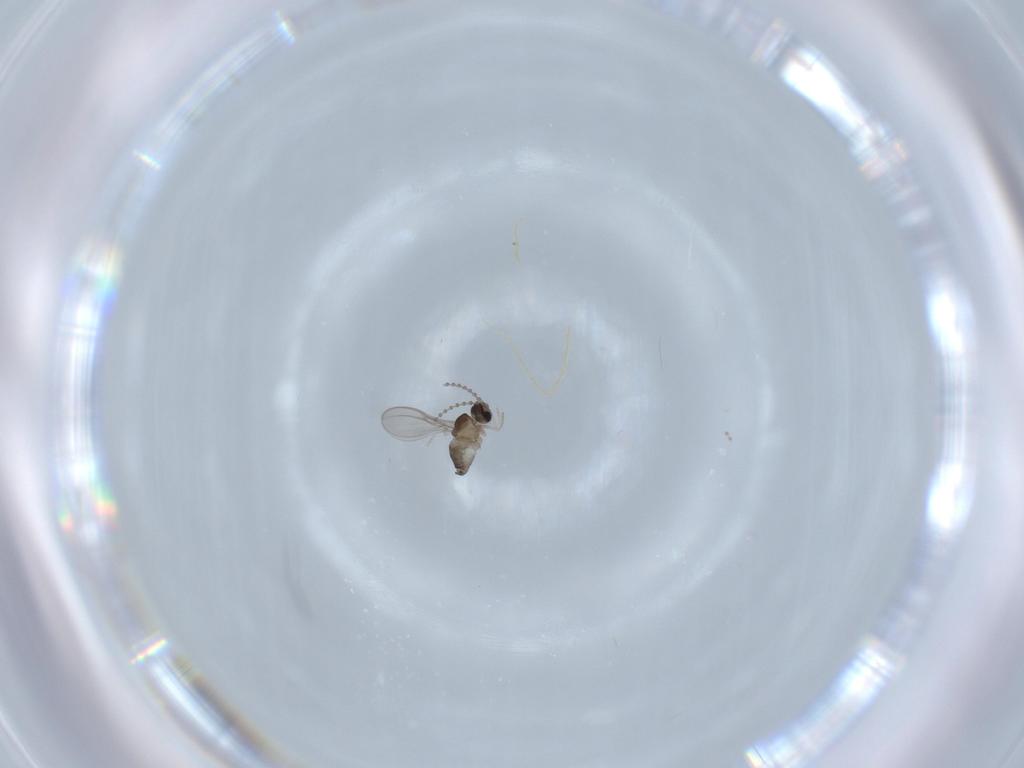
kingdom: Animalia
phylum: Arthropoda
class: Insecta
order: Diptera
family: Cecidomyiidae
